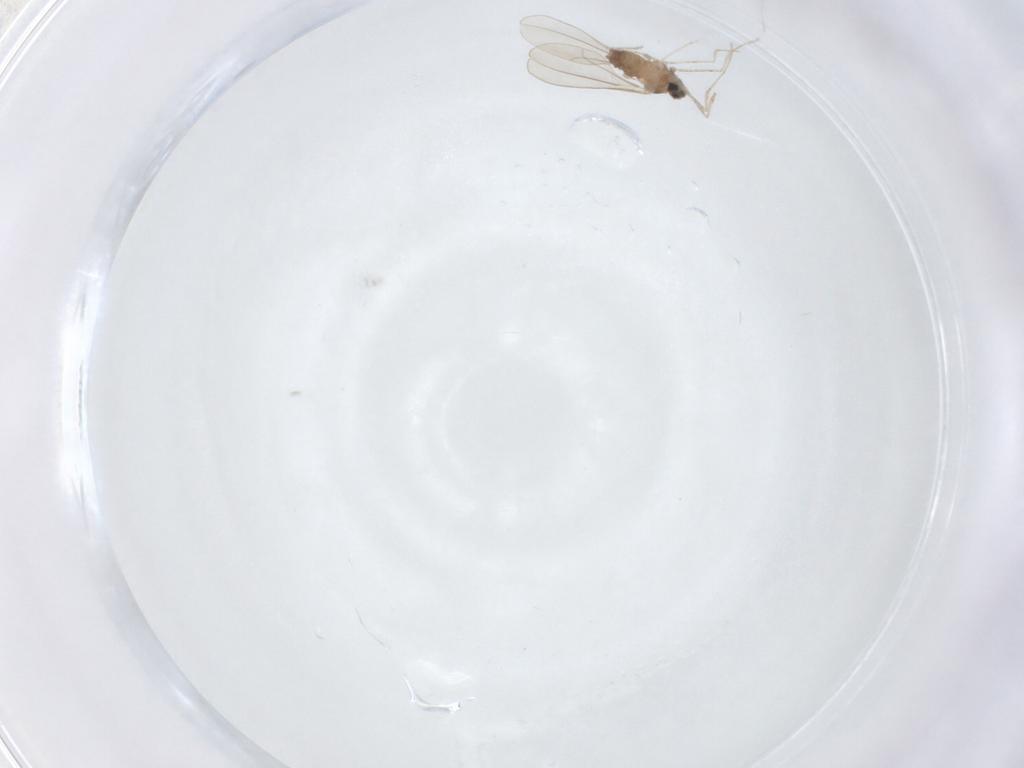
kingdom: Animalia
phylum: Arthropoda
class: Insecta
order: Diptera
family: Cecidomyiidae
